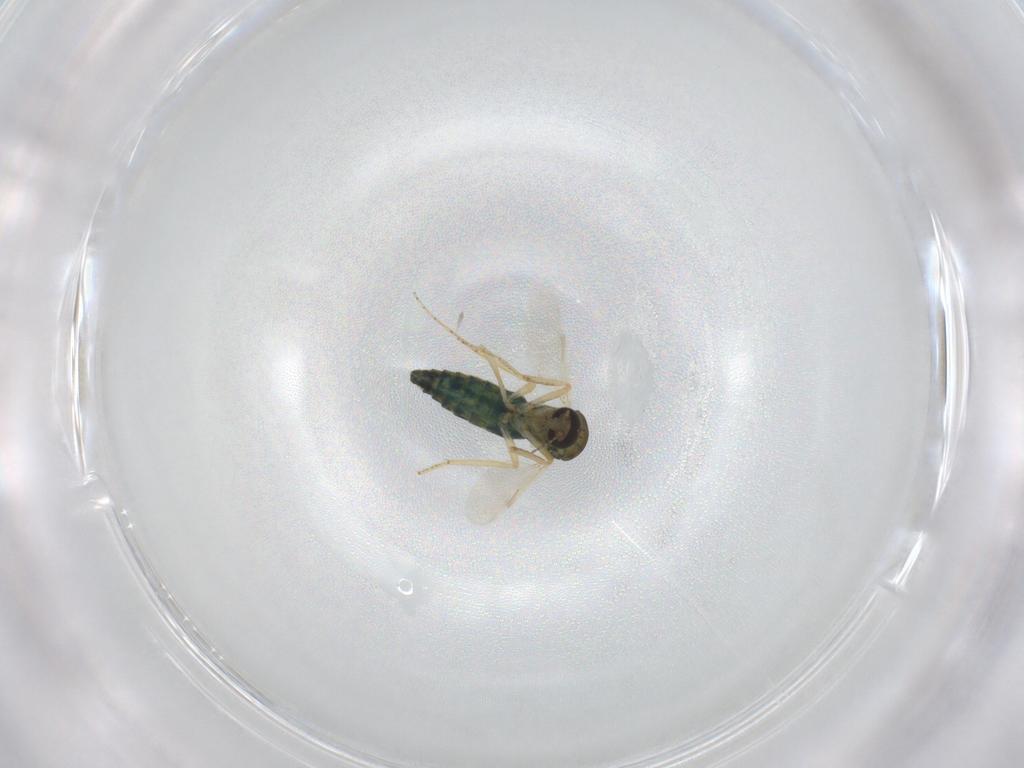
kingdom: Animalia
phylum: Arthropoda
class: Insecta
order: Diptera
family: Ceratopogonidae
